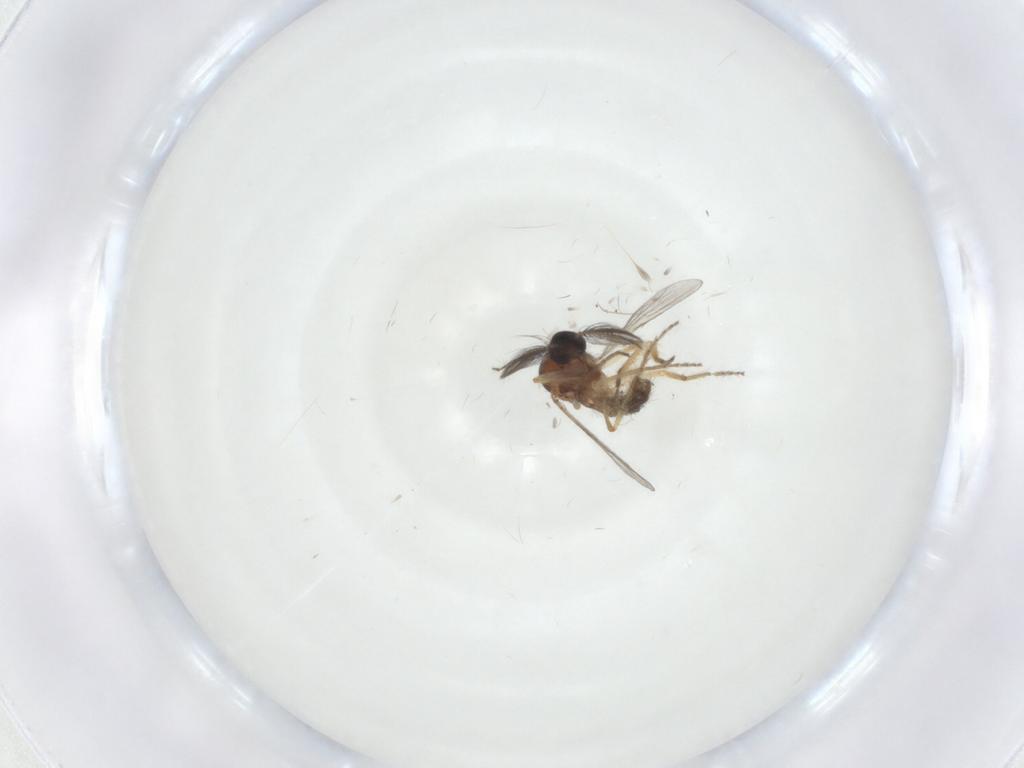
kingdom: Animalia
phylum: Arthropoda
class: Insecta
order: Diptera
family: Ceratopogonidae
